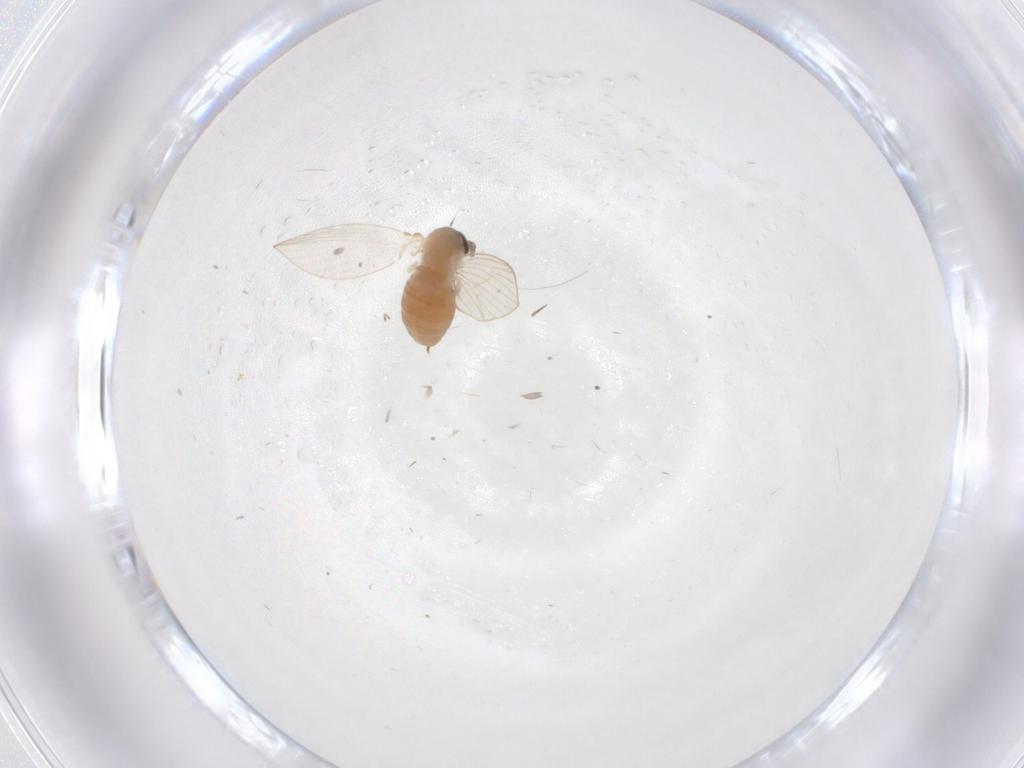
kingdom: Animalia
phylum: Arthropoda
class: Insecta
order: Diptera
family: Psychodidae
